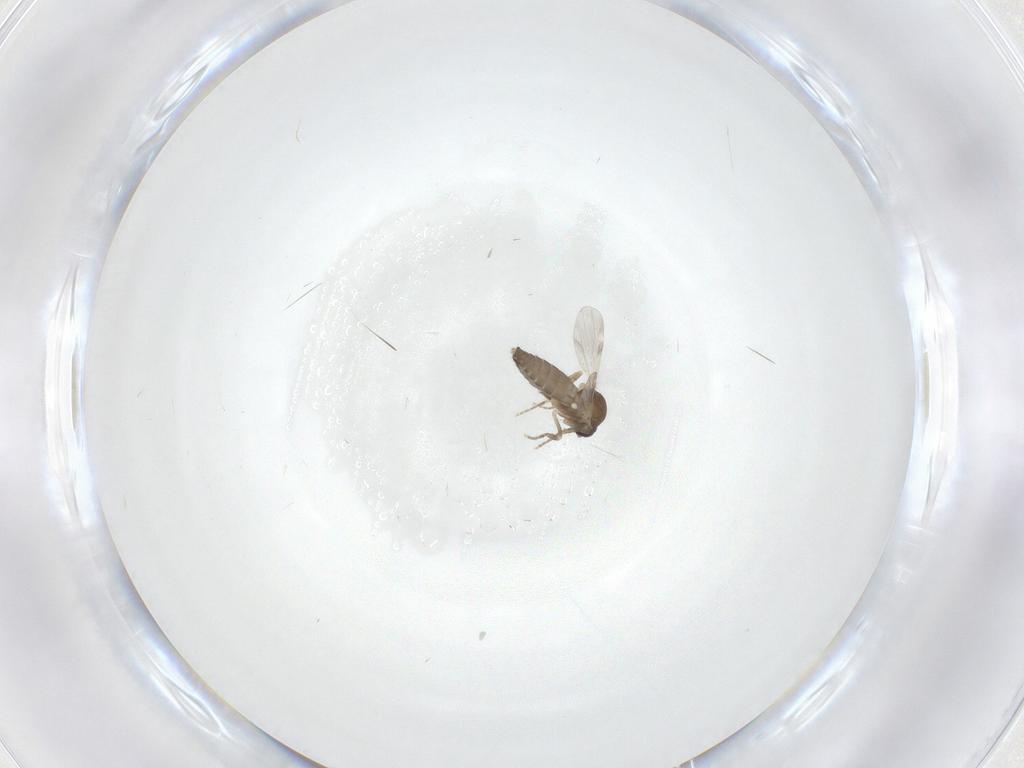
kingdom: Animalia
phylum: Arthropoda
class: Insecta
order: Diptera
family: Ceratopogonidae
